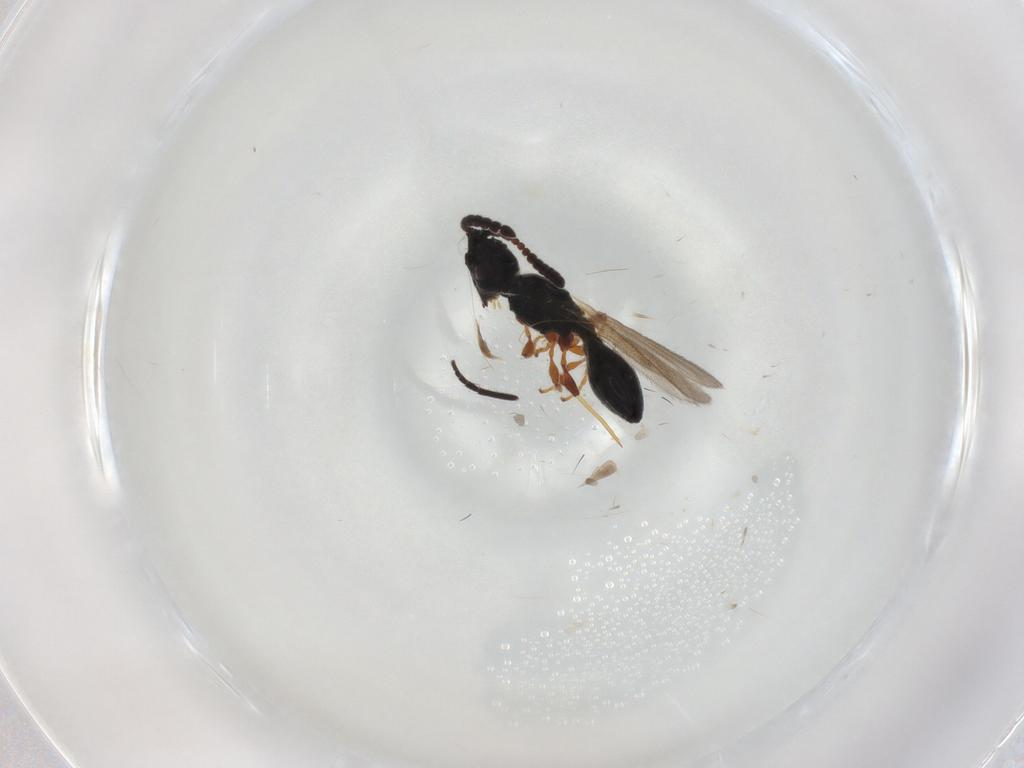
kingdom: Animalia
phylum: Arthropoda
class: Insecta
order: Hymenoptera
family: Diapriidae
